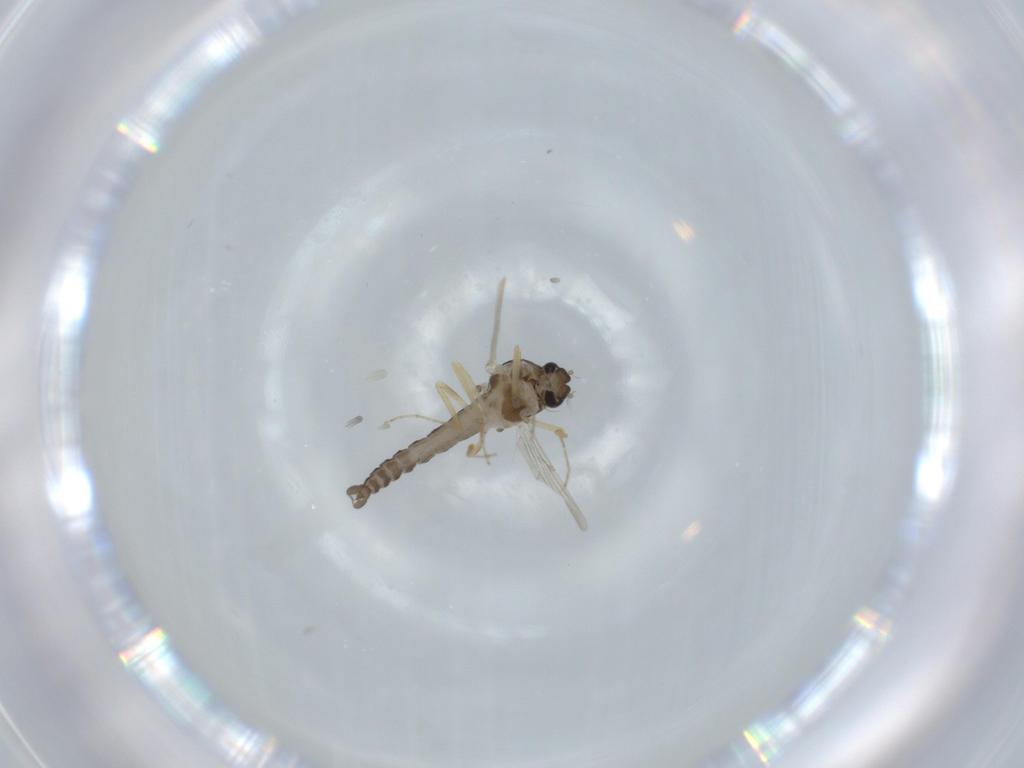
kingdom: Animalia
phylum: Arthropoda
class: Insecta
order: Diptera
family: Ceratopogonidae
